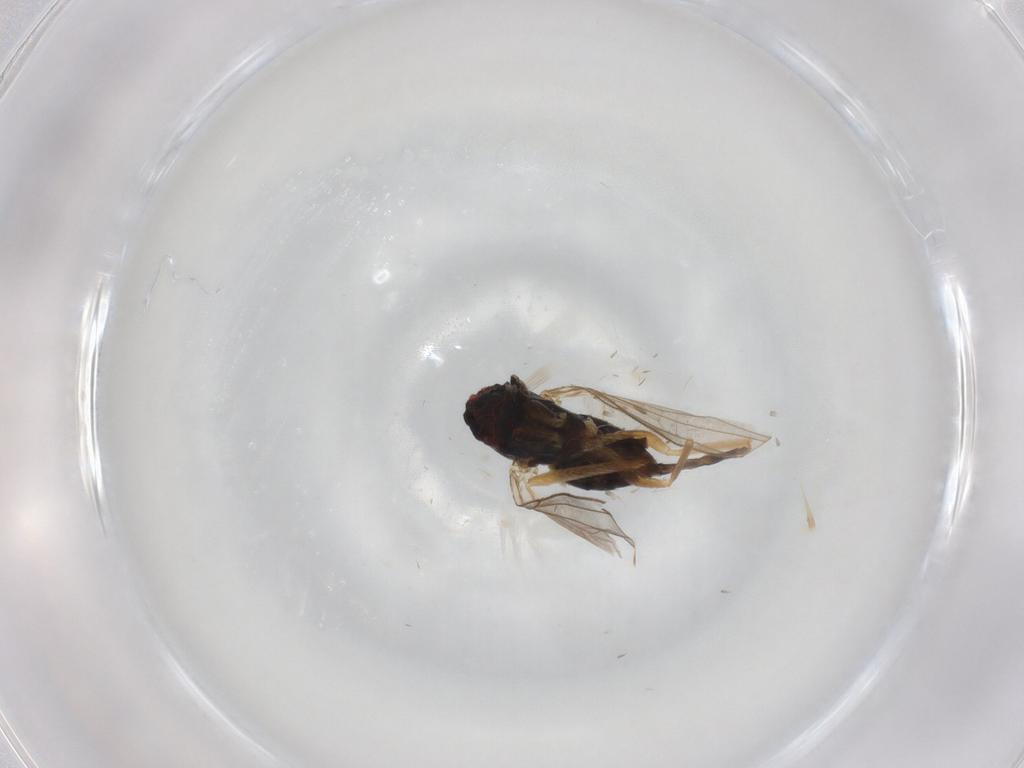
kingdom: Animalia
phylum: Arthropoda
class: Insecta
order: Diptera
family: Dolichopodidae
